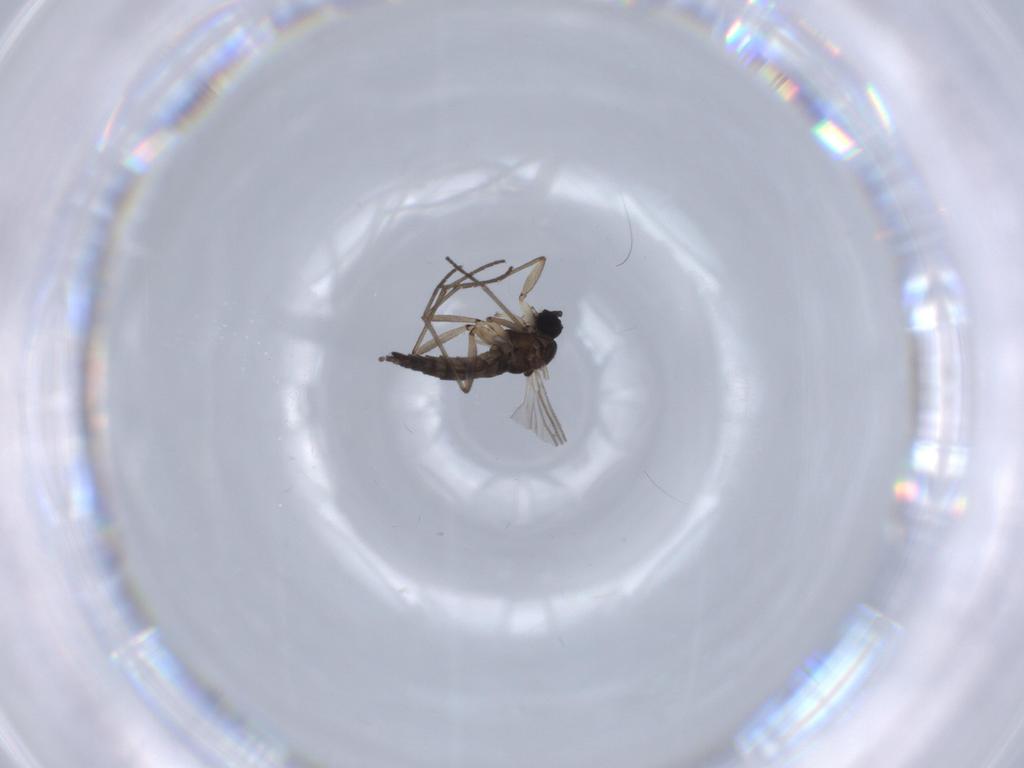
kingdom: Animalia
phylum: Arthropoda
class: Insecta
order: Diptera
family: Sciaridae
